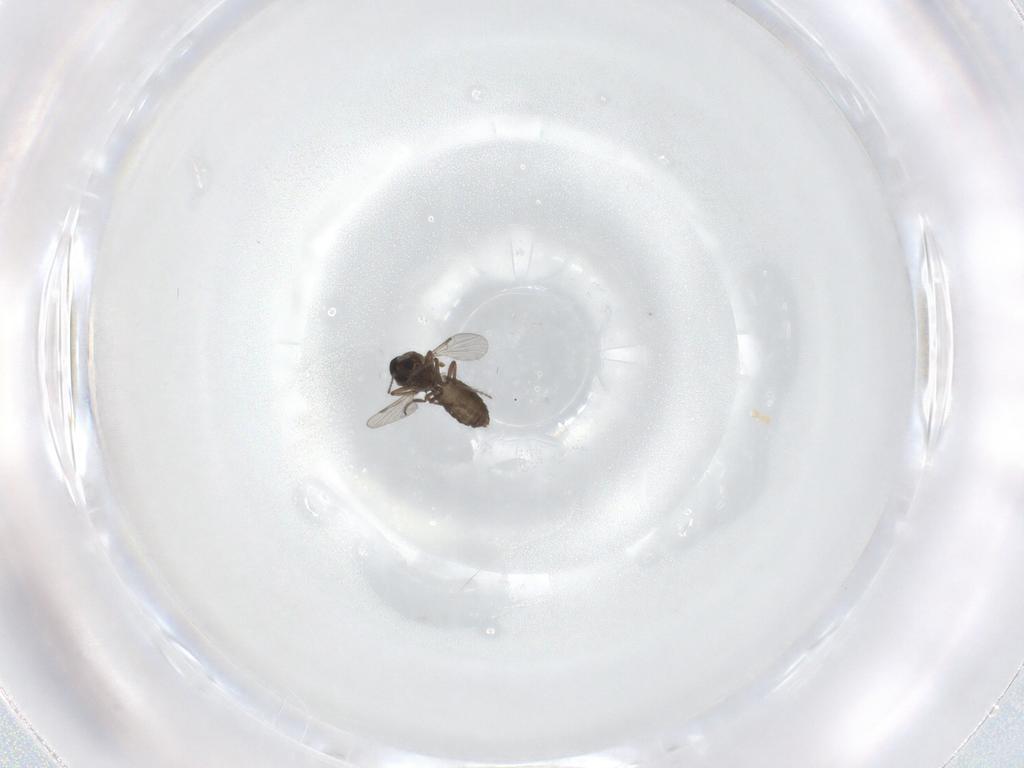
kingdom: Animalia
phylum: Arthropoda
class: Insecta
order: Diptera
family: Ceratopogonidae
